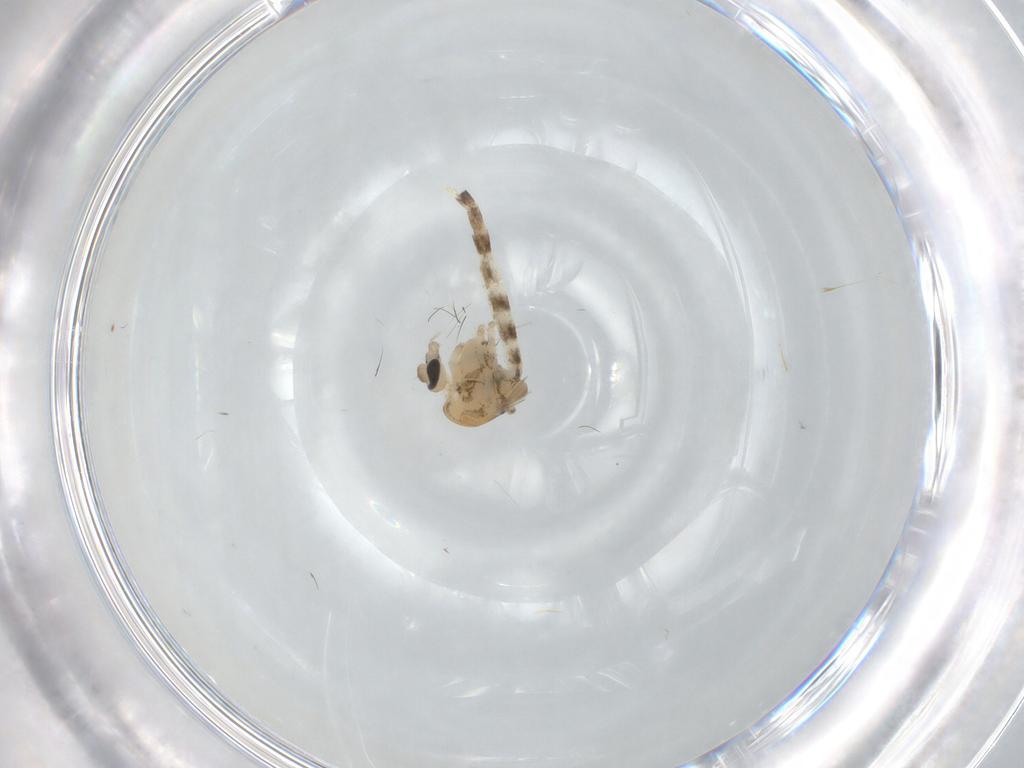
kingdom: Animalia
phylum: Arthropoda
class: Insecta
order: Diptera
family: Chironomidae
